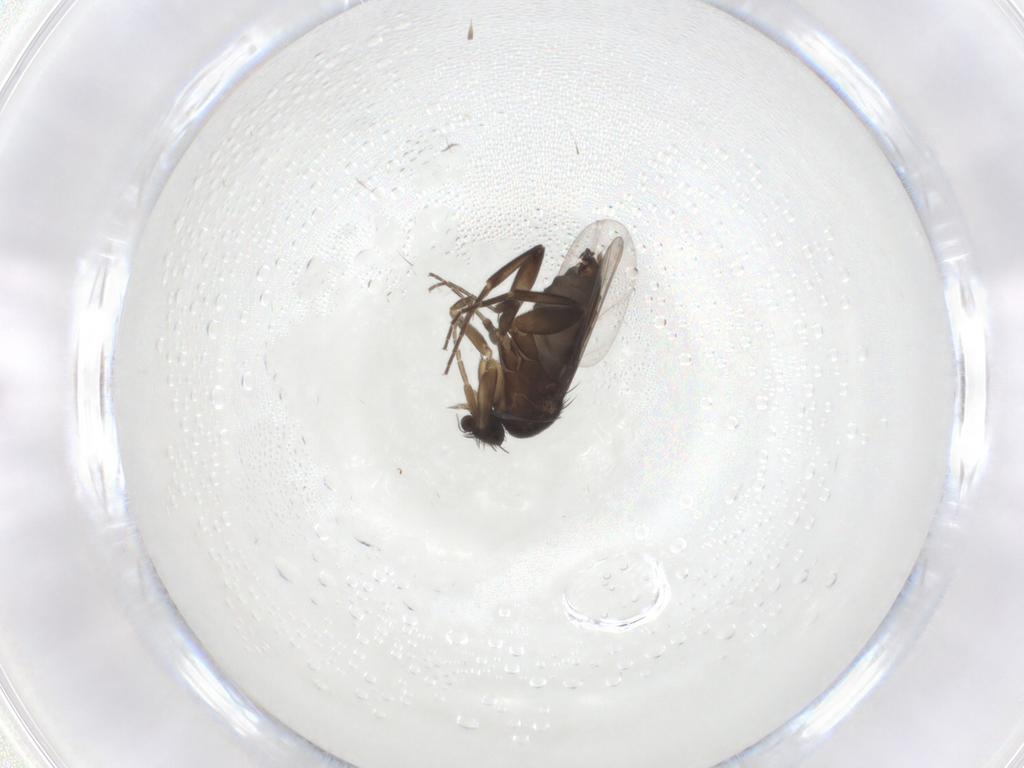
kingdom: Animalia
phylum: Arthropoda
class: Insecta
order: Diptera
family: Phoridae
